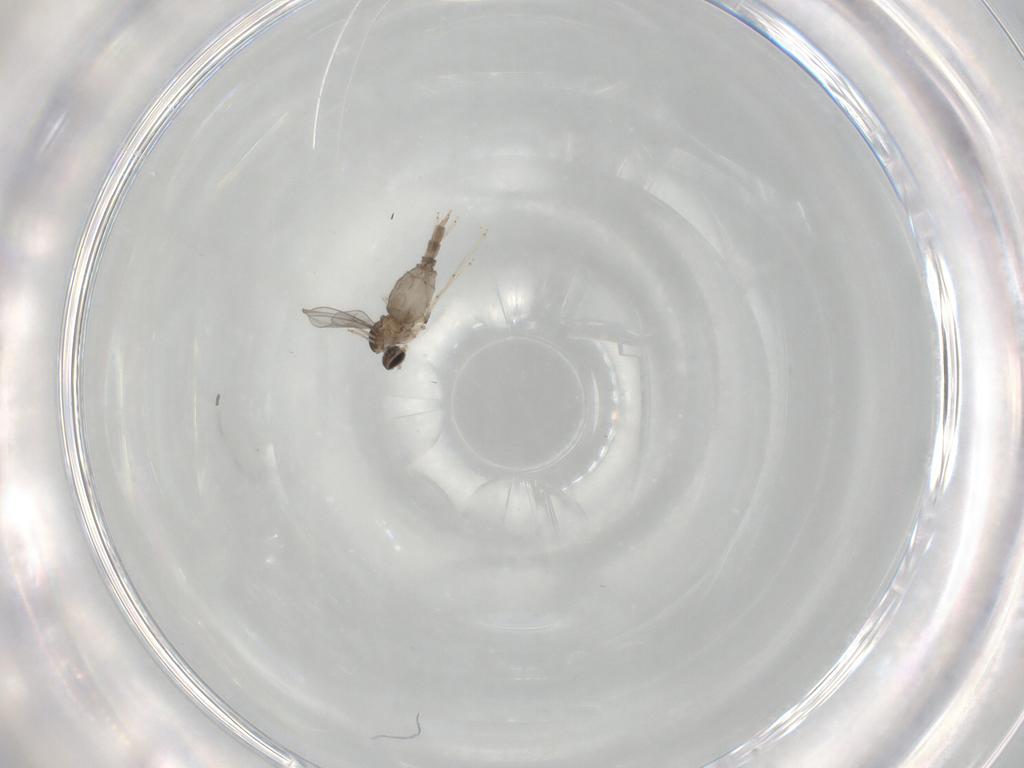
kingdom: Animalia
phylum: Arthropoda
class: Insecta
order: Diptera
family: Cecidomyiidae
